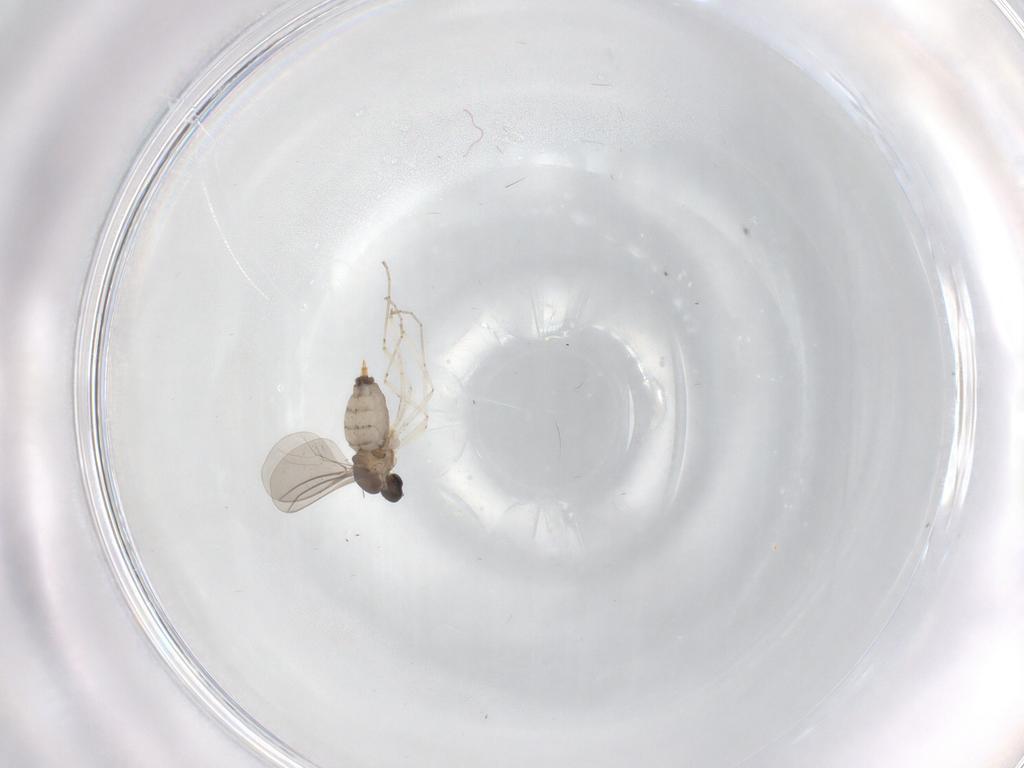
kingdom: Animalia
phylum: Arthropoda
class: Insecta
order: Diptera
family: Cecidomyiidae
